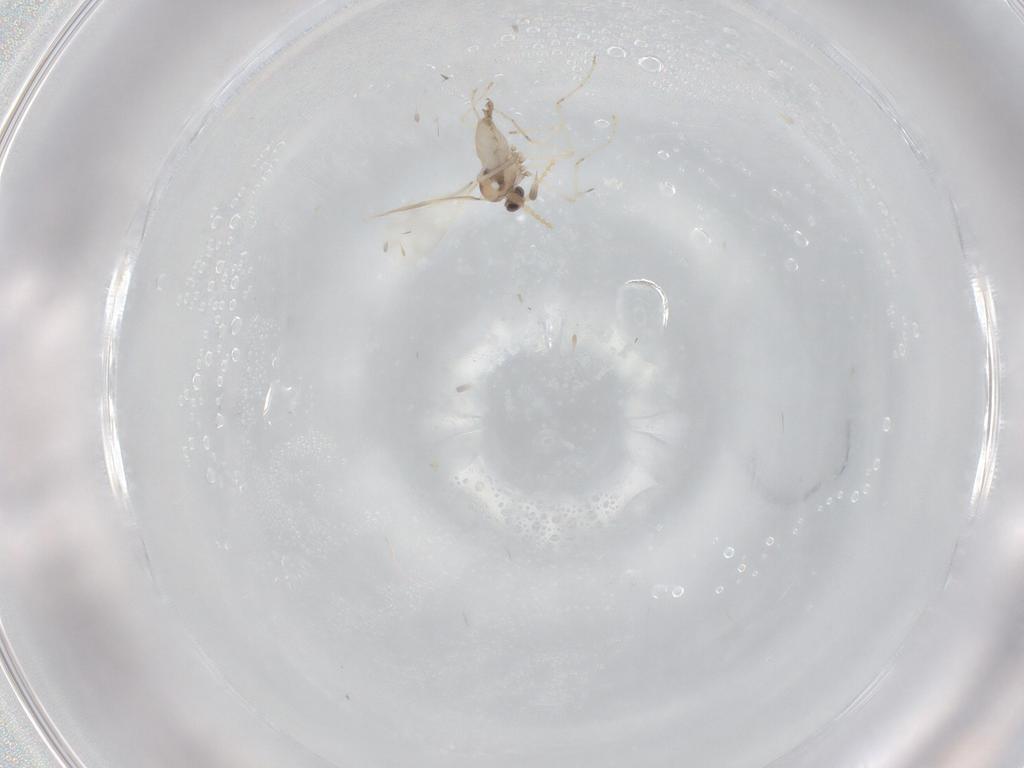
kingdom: Animalia
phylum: Arthropoda
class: Insecta
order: Diptera
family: Cecidomyiidae
